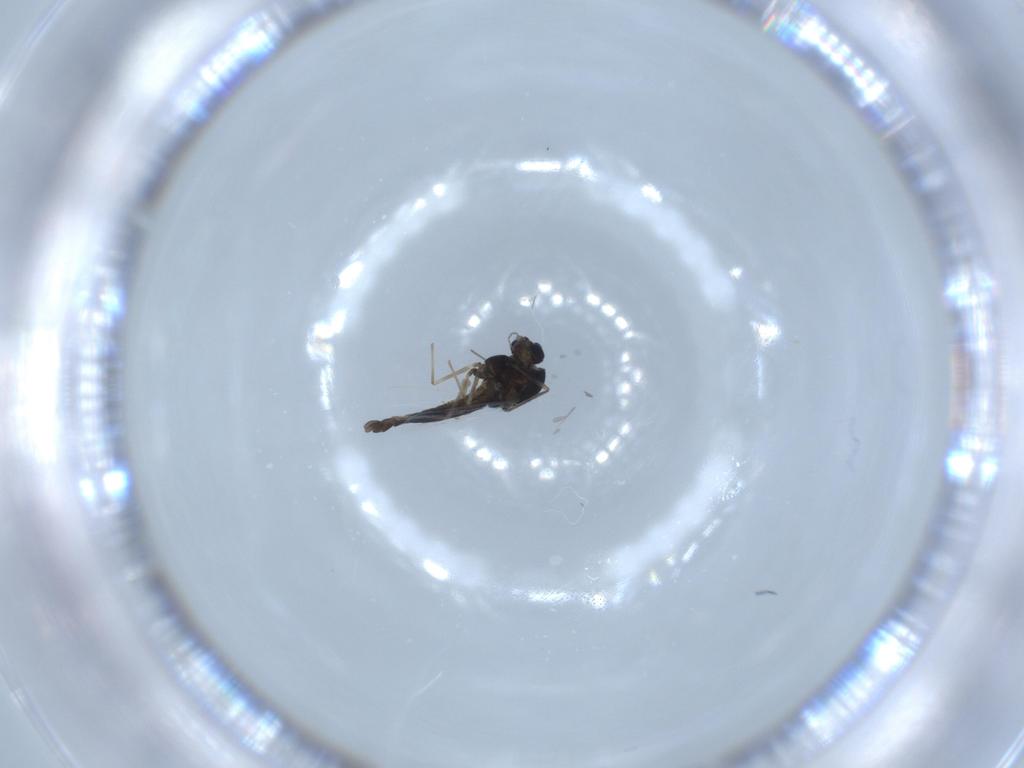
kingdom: Animalia
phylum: Arthropoda
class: Insecta
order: Diptera
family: Chironomidae
